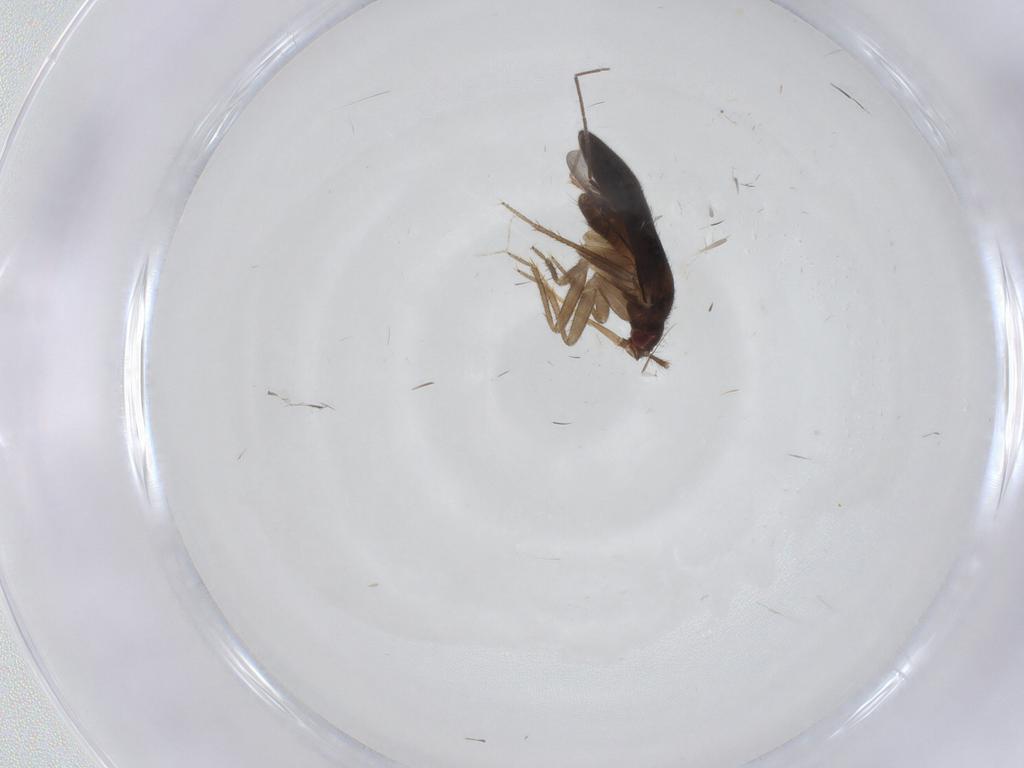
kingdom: Animalia
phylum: Arthropoda
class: Insecta
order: Hemiptera
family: Ceratocombidae
